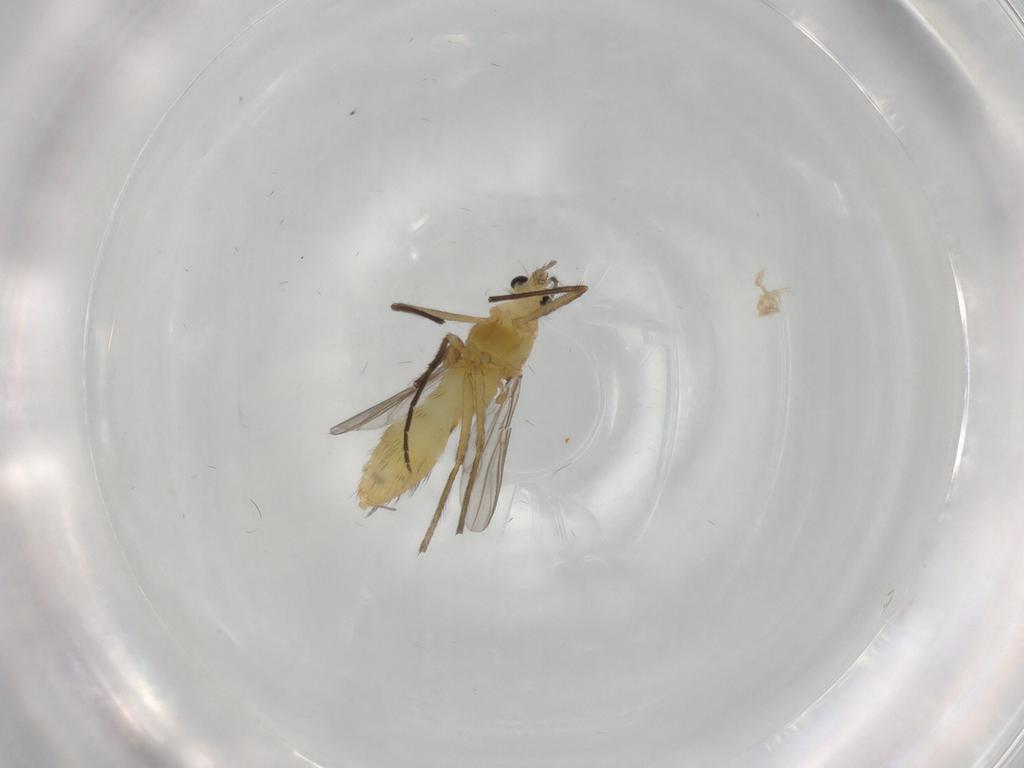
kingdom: Animalia
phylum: Arthropoda
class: Insecta
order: Diptera
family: Chironomidae
